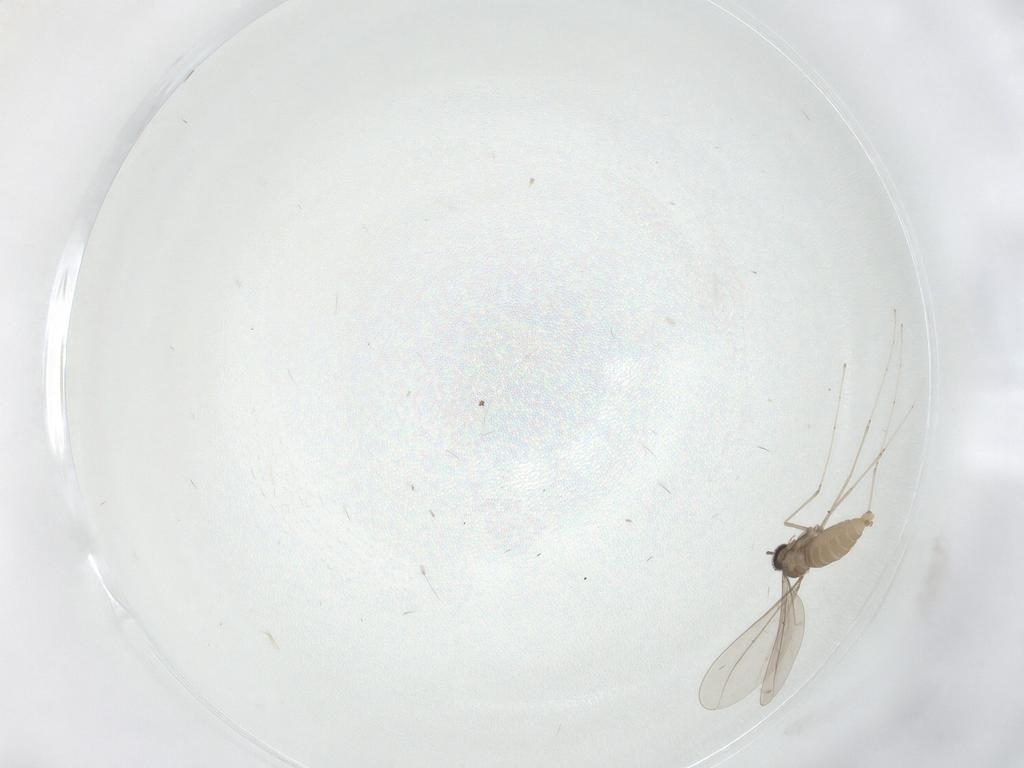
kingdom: Animalia
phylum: Arthropoda
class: Insecta
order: Diptera
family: Cecidomyiidae
